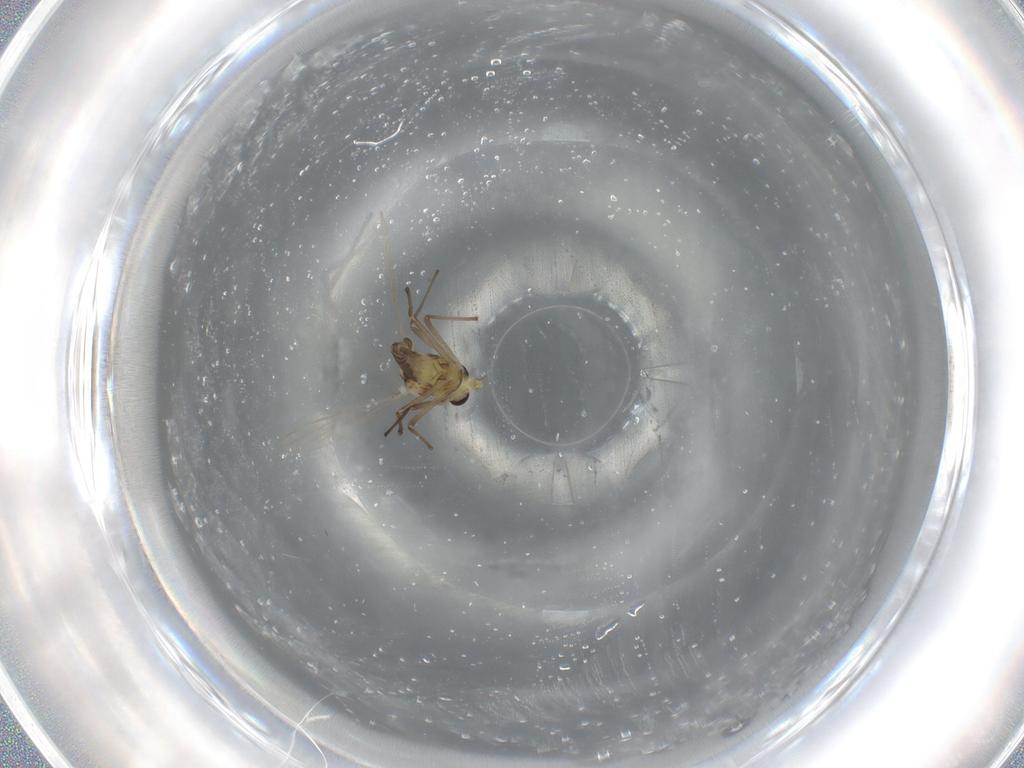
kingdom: Animalia
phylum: Arthropoda
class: Insecta
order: Diptera
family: Chironomidae
